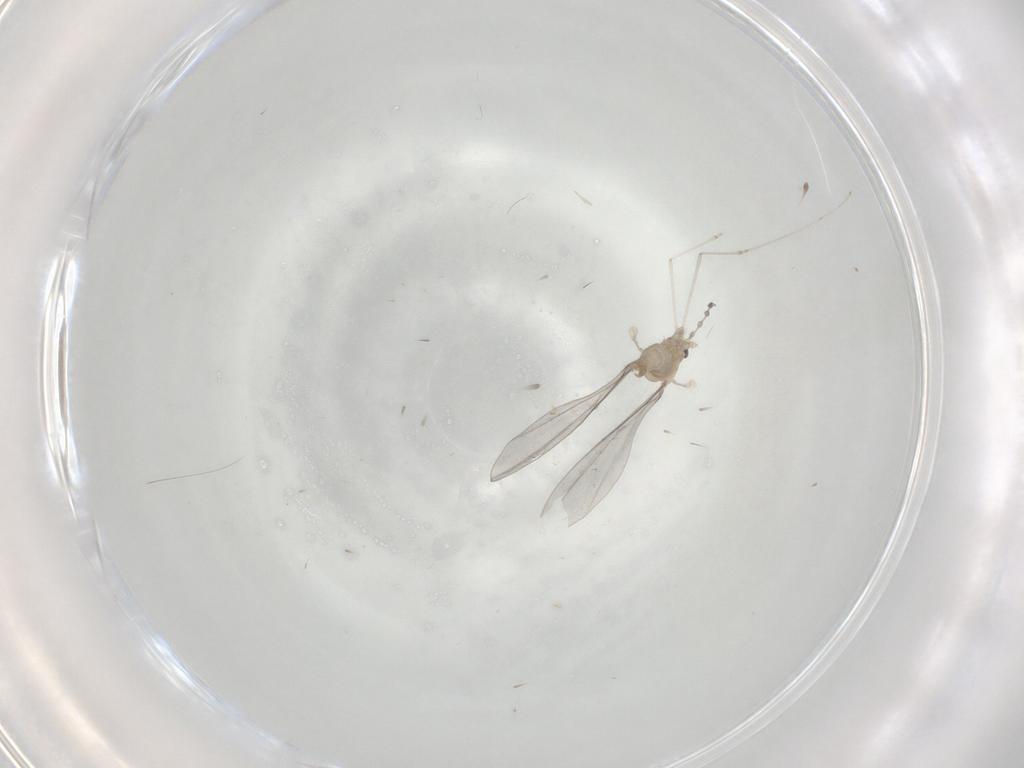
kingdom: Animalia
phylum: Arthropoda
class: Insecta
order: Diptera
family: Cecidomyiidae
